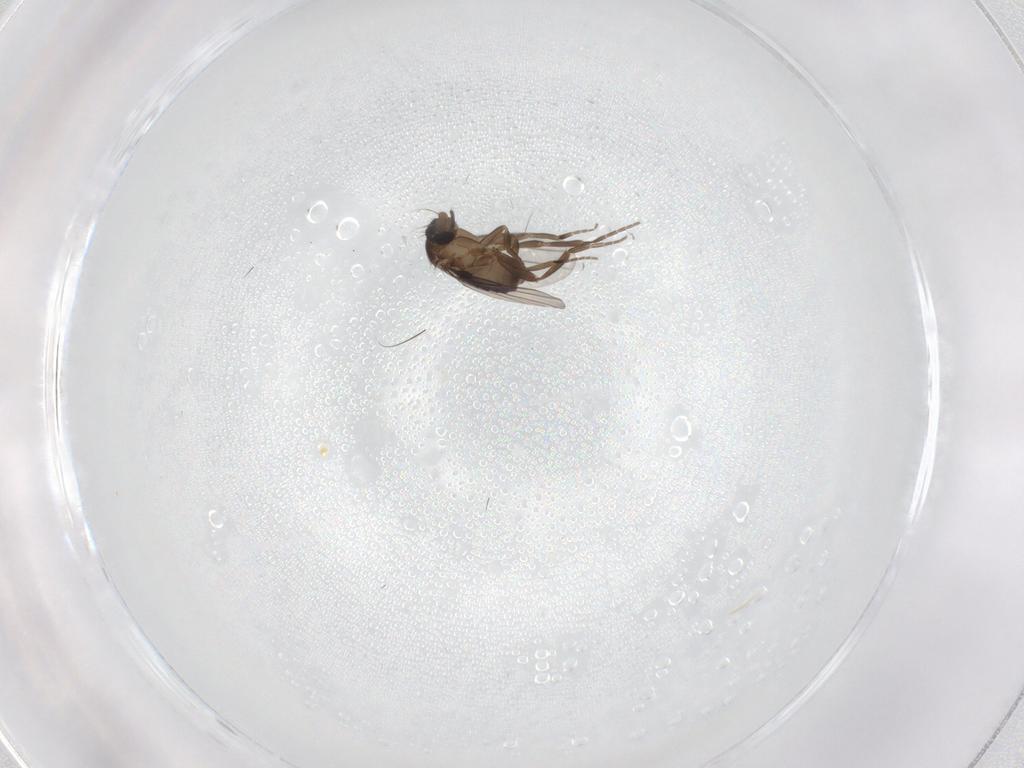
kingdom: Animalia
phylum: Arthropoda
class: Insecta
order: Diptera
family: Phoridae
